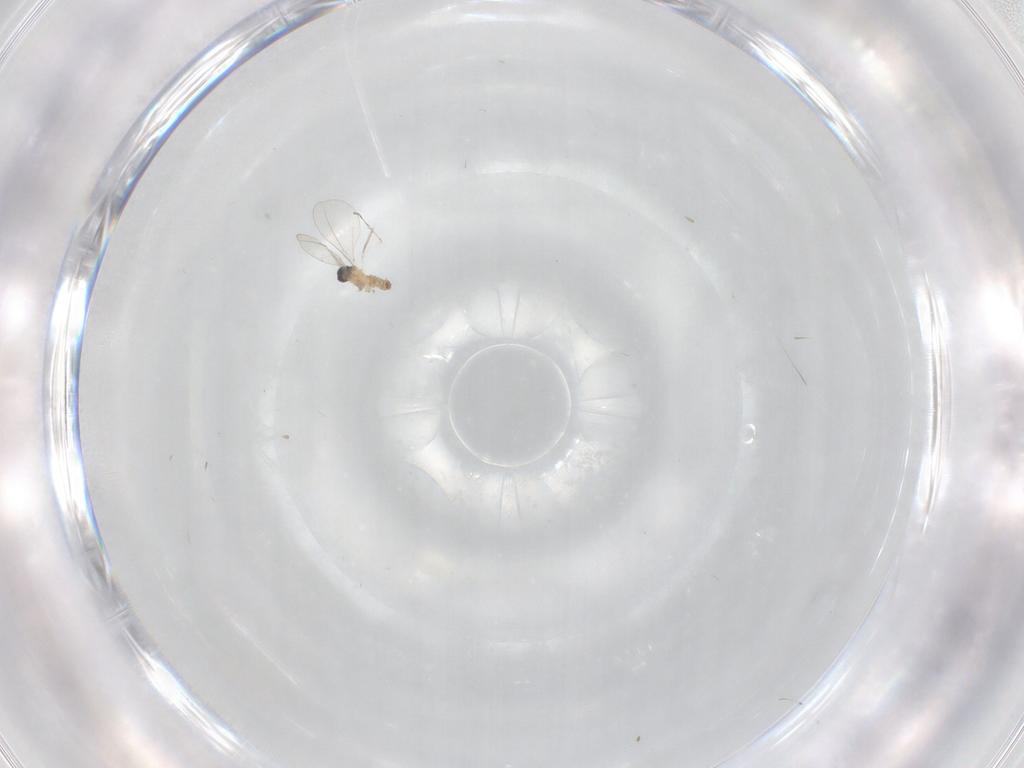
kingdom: Animalia
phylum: Arthropoda
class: Insecta
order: Diptera
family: Cecidomyiidae
